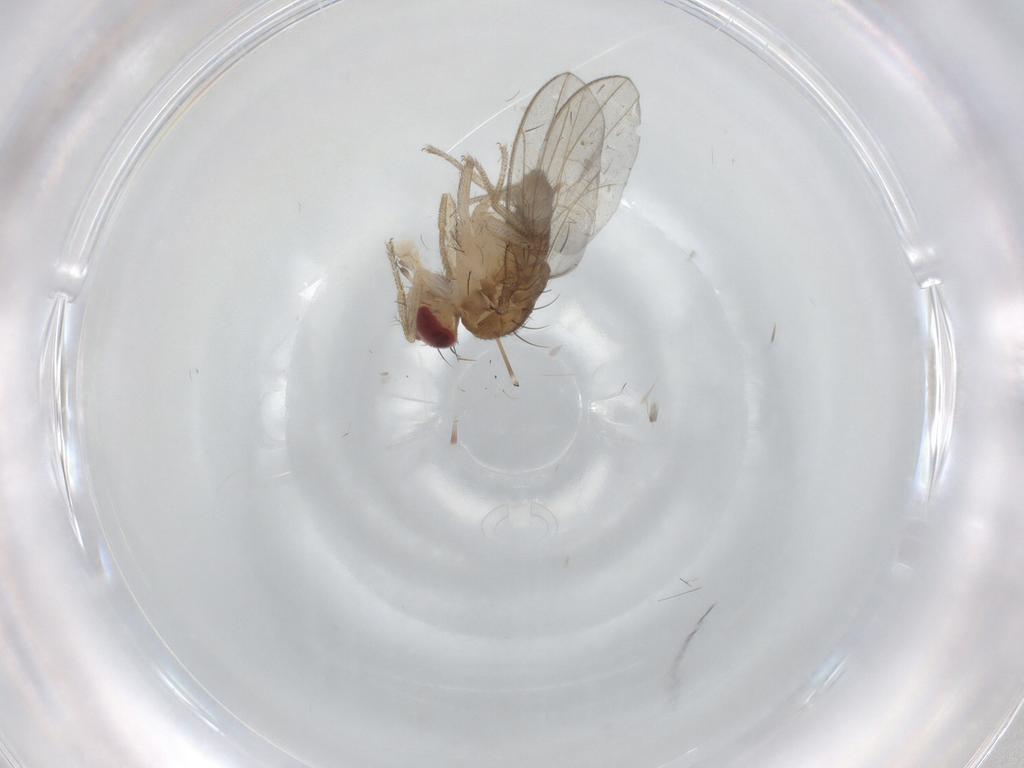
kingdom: Animalia
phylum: Arthropoda
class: Insecta
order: Diptera
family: Drosophilidae
